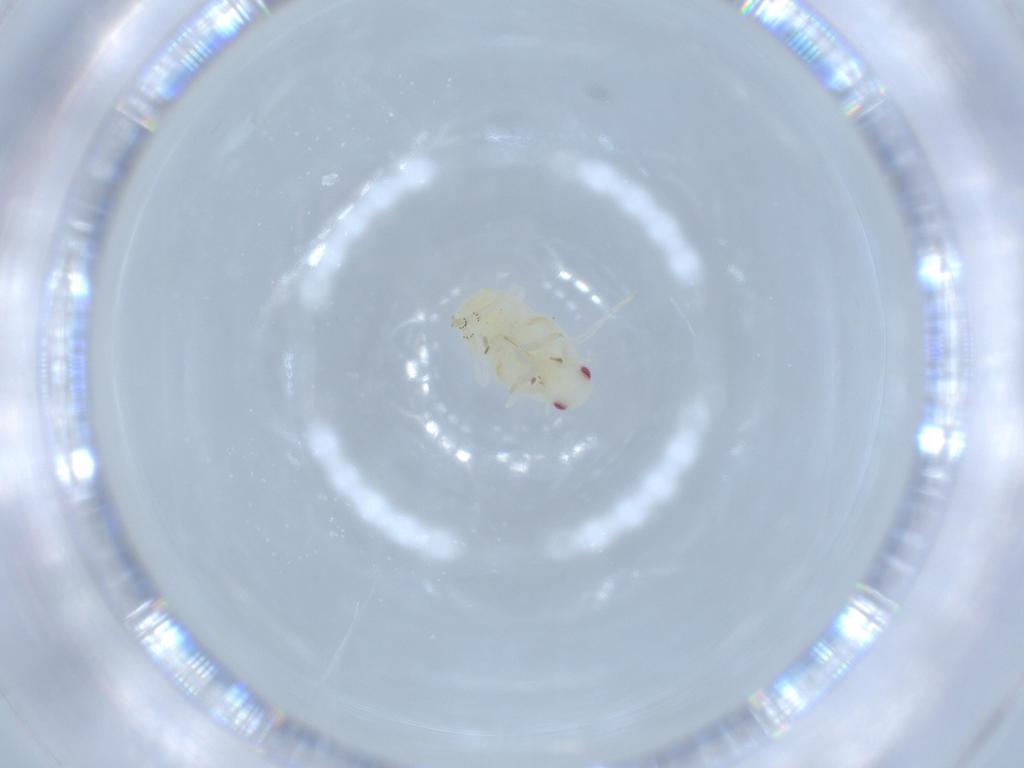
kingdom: Animalia
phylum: Arthropoda
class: Insecta
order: Hemiptera
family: Flatidae
